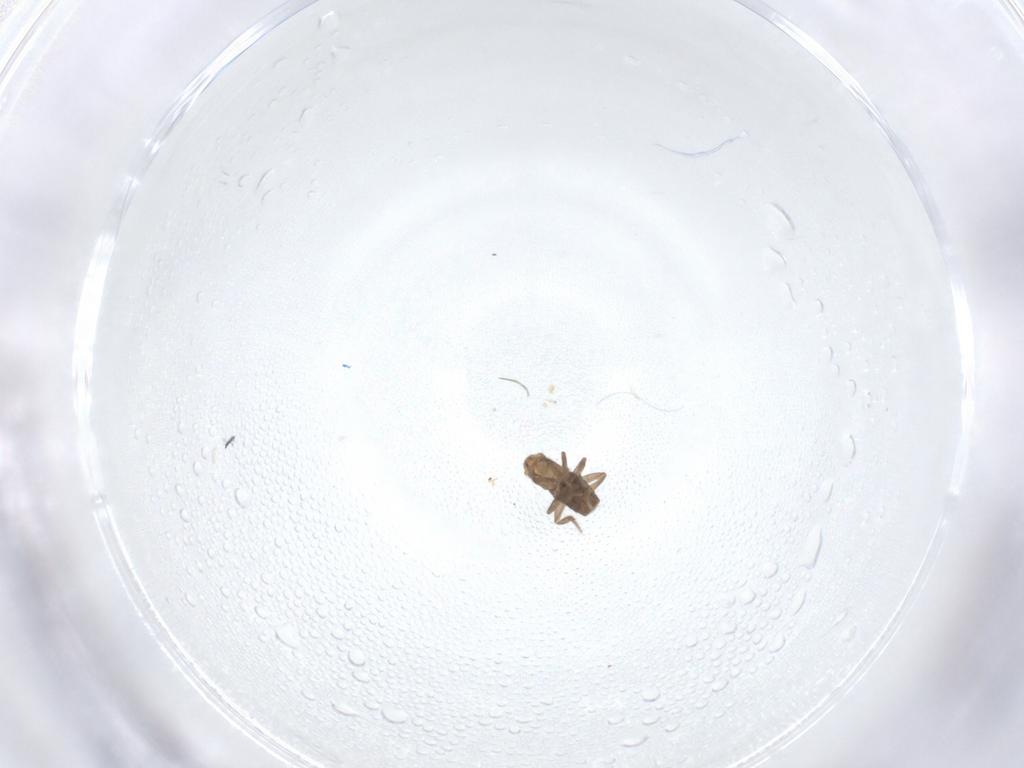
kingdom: Animalia
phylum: Arthropoda
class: Insecta
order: Diptera
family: Phoridae
